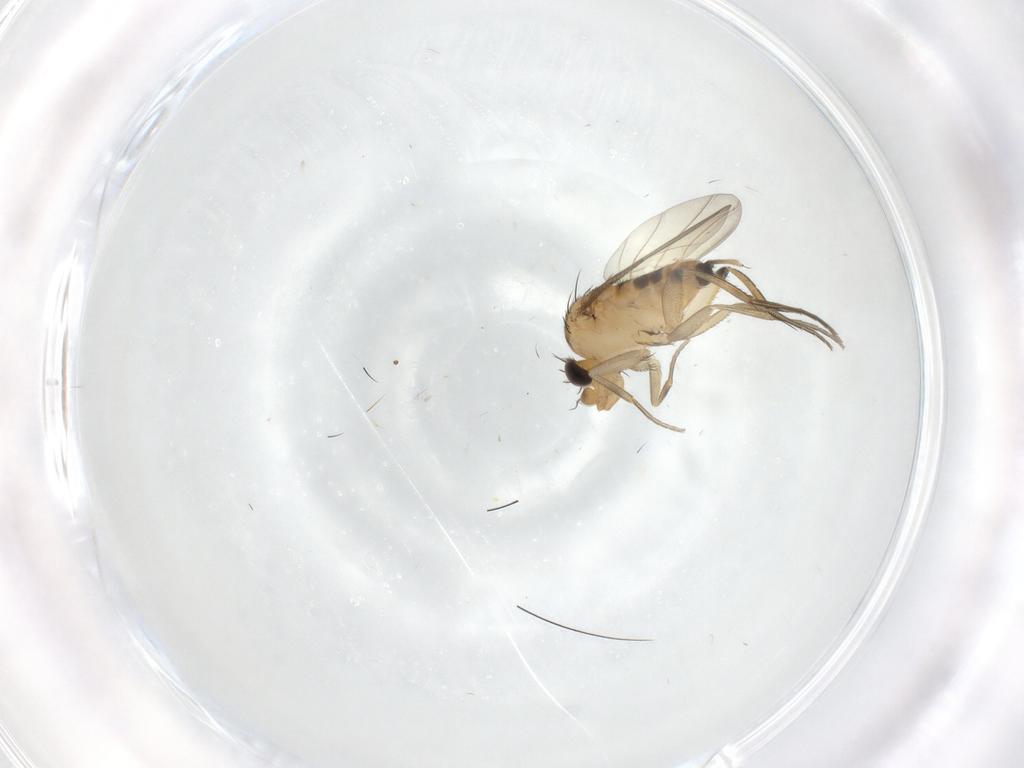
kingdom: Animalia
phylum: Arthropoda
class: Insecta
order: Diptera
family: Phoridae
